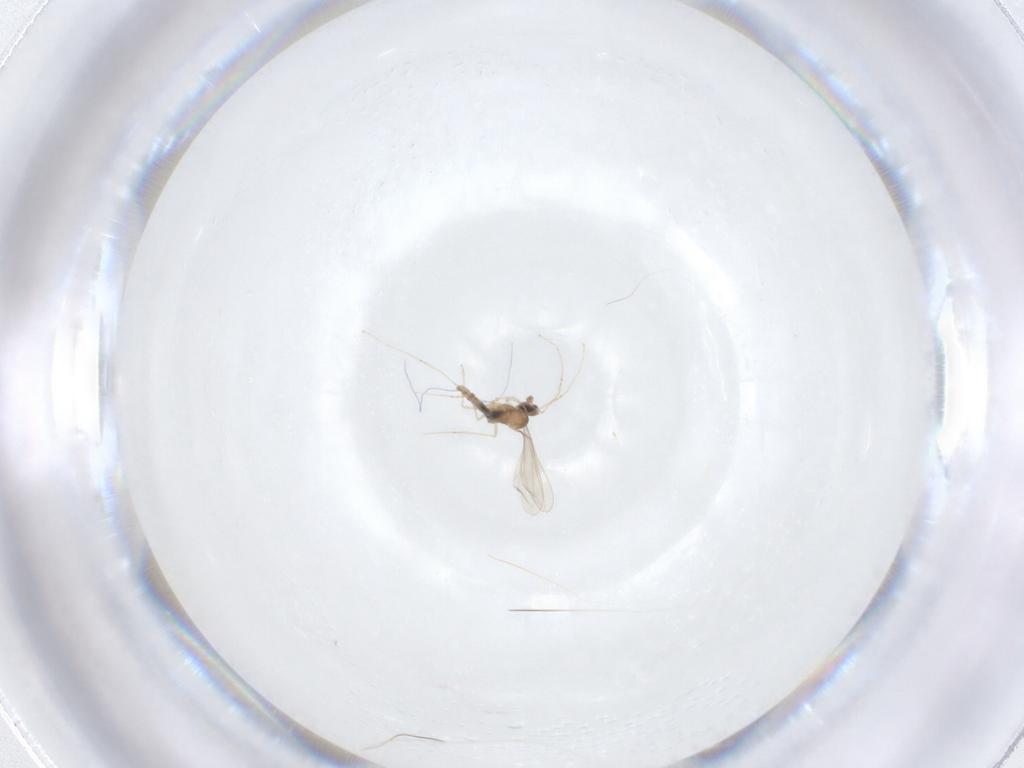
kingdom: Animalia
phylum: Arthropoda
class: Insecta
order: Diptera
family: Cecidomyiidae
